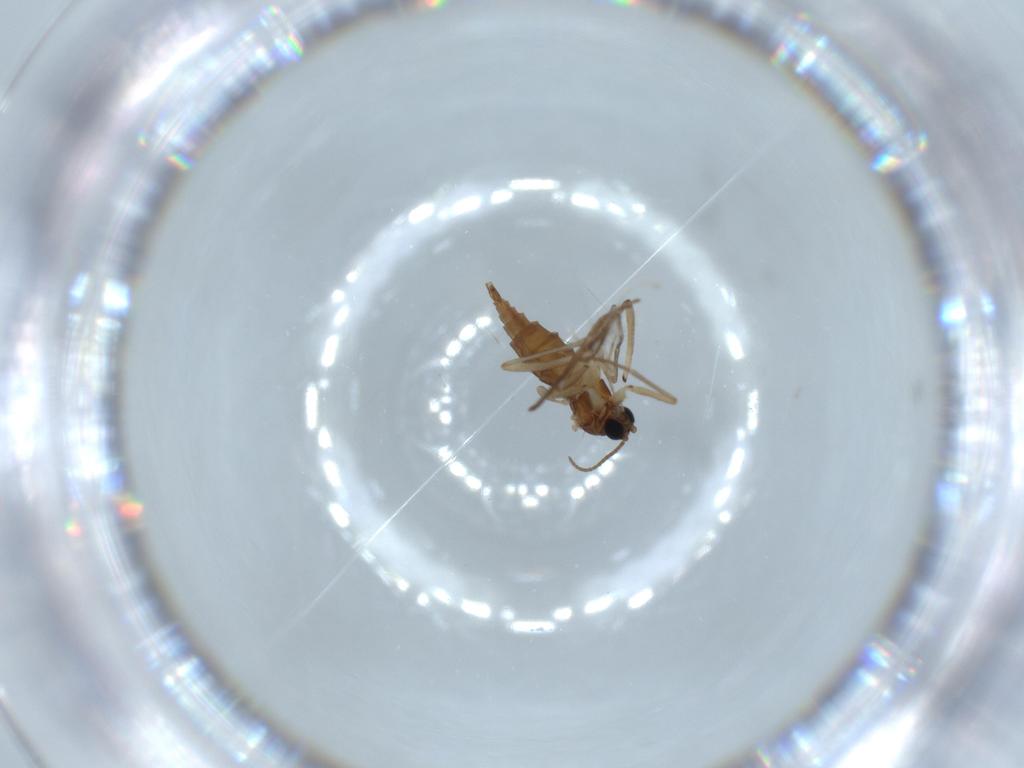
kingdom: Animalia
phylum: Arthropoda
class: Insecta
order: Diptera
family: Sciaridae
